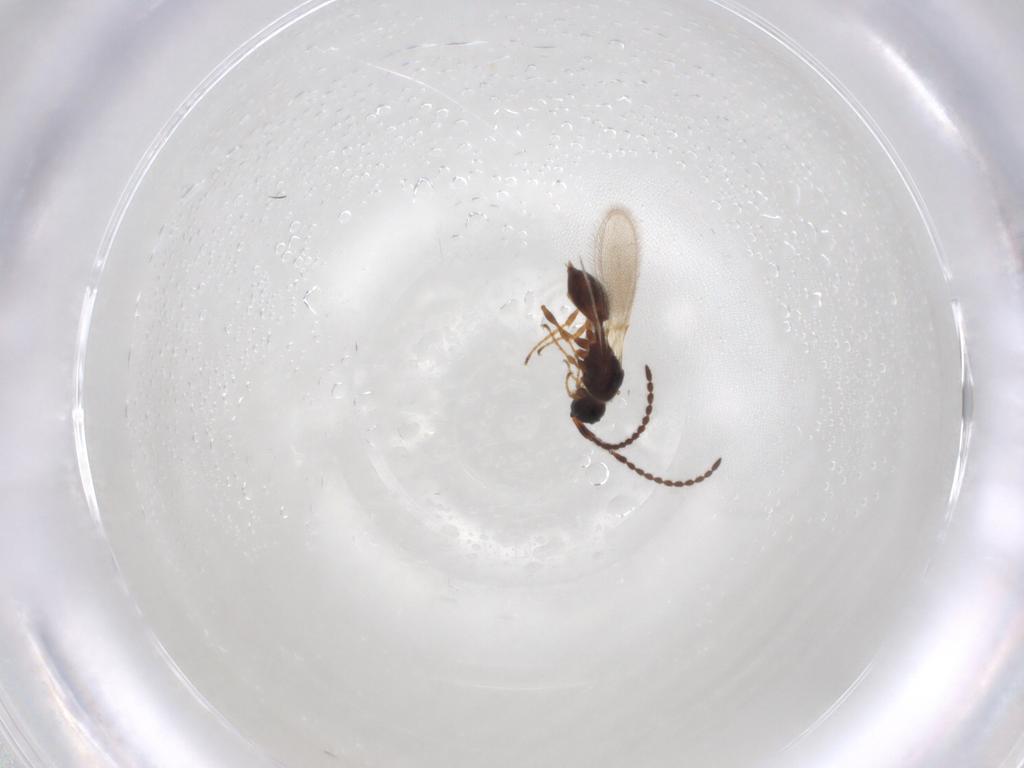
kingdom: Animalia
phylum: Arthropoda
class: Insecta
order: Hymenoptera
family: Diapriidae
